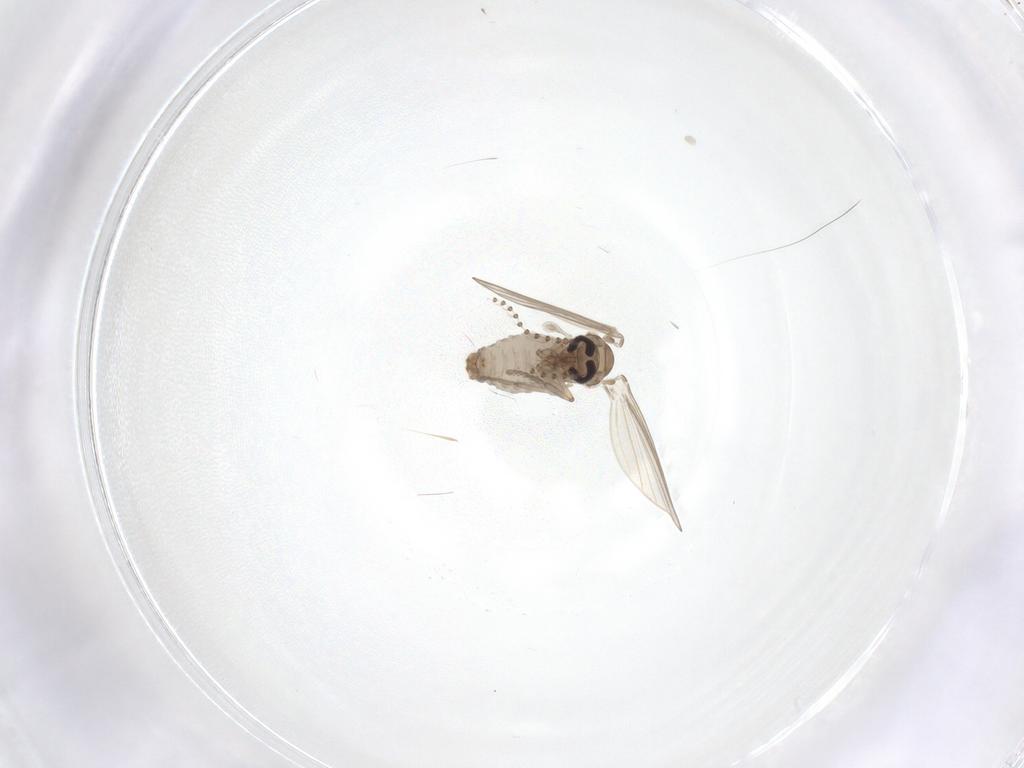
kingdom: Animalia
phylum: Arthropoda
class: Insecta
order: Diptera
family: Psychodidae
